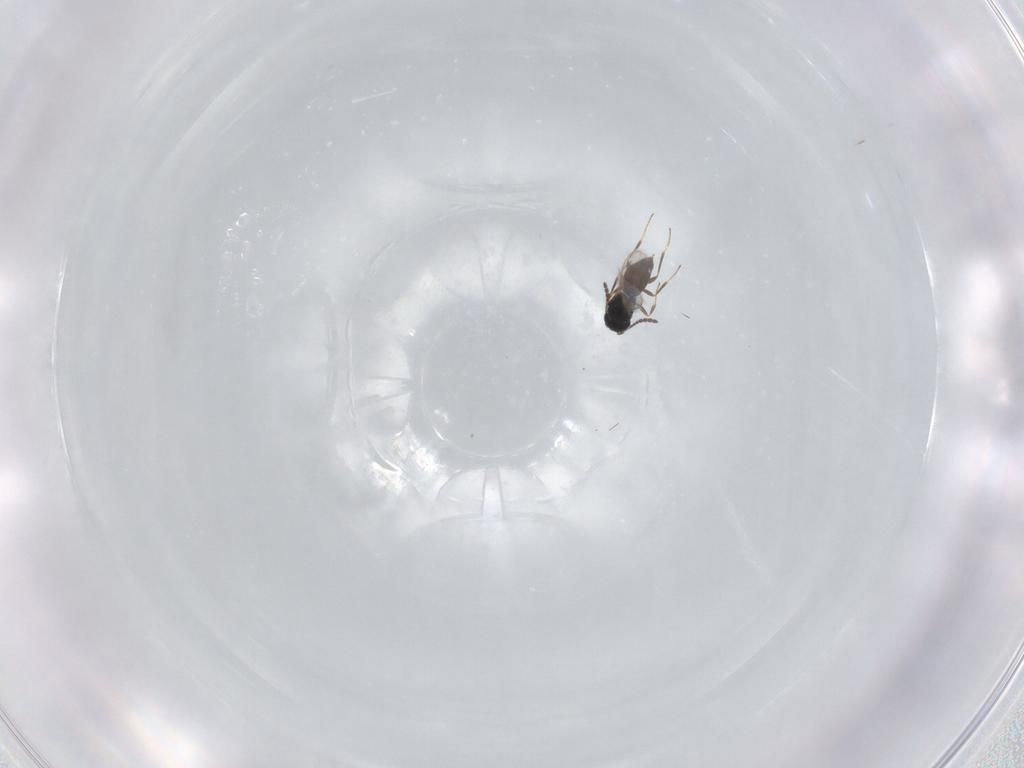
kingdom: Animalia
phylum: Arthropoda
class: Insecta
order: Hymenoptera
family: Scelionidae
